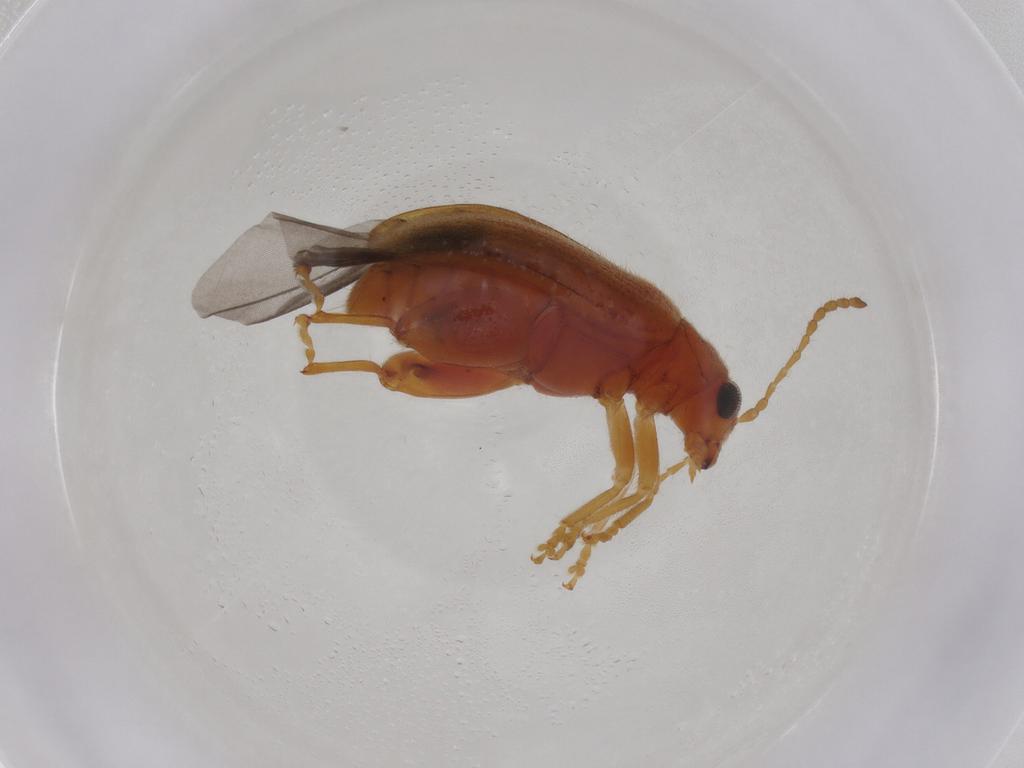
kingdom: Animalia
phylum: Arthropoda
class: Insecta
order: Coleoptera
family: Chrysomelidae
